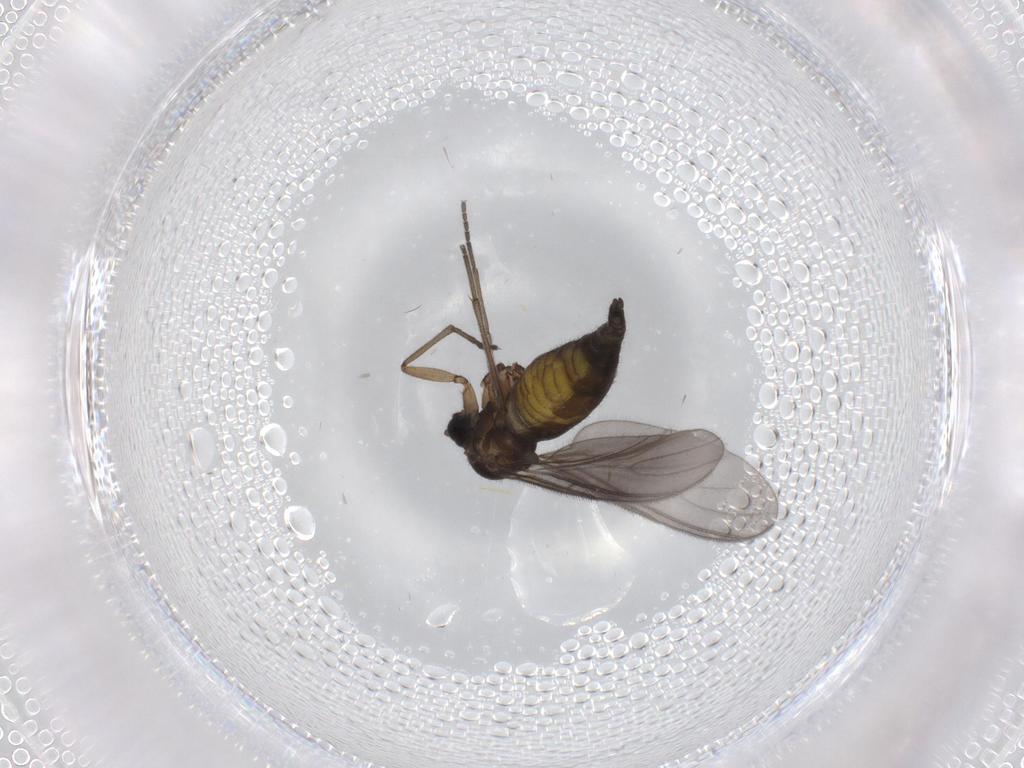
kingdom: Animalia
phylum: Arthropoda
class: Insecta
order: Diptera
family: Sciaridae
